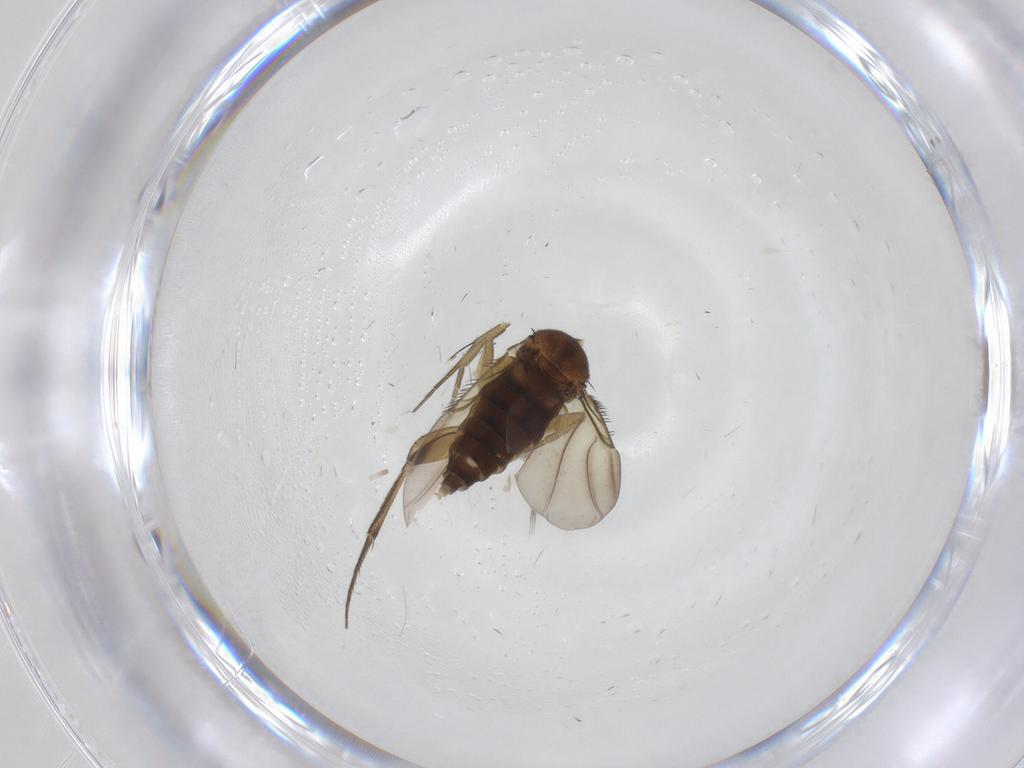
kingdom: Animalia
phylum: Arthropoda
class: Insecta
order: Diptera
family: Phoridae
